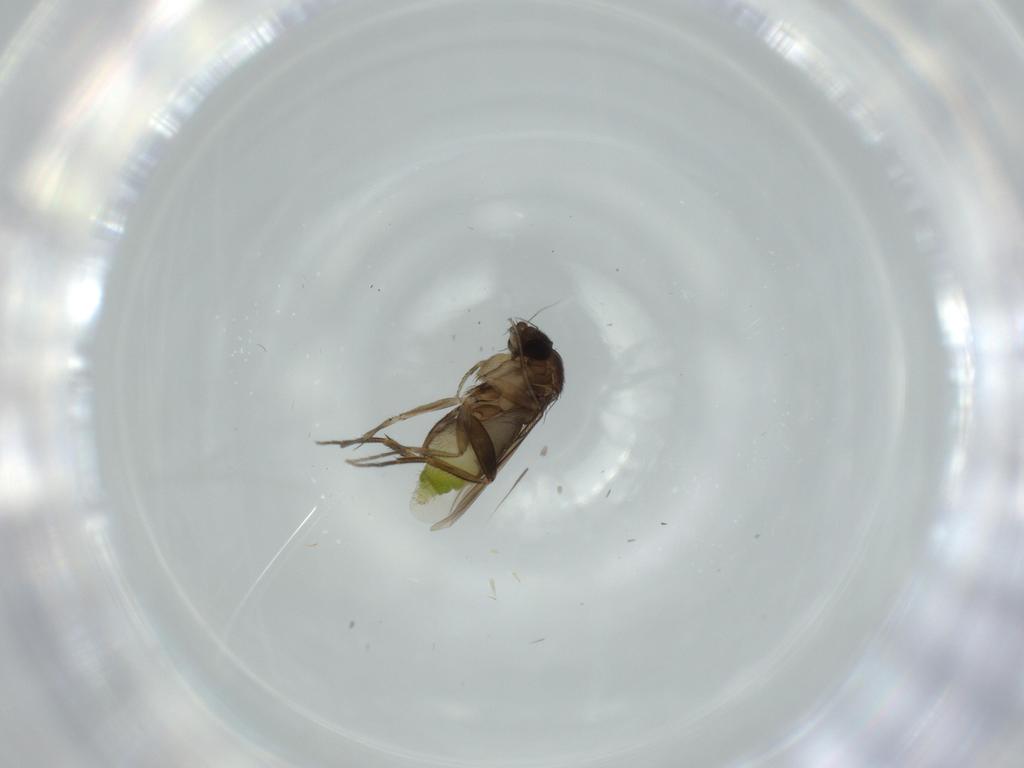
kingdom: Animalia
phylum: Arthropoda
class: Insecta
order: Diptera
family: Phoridae
